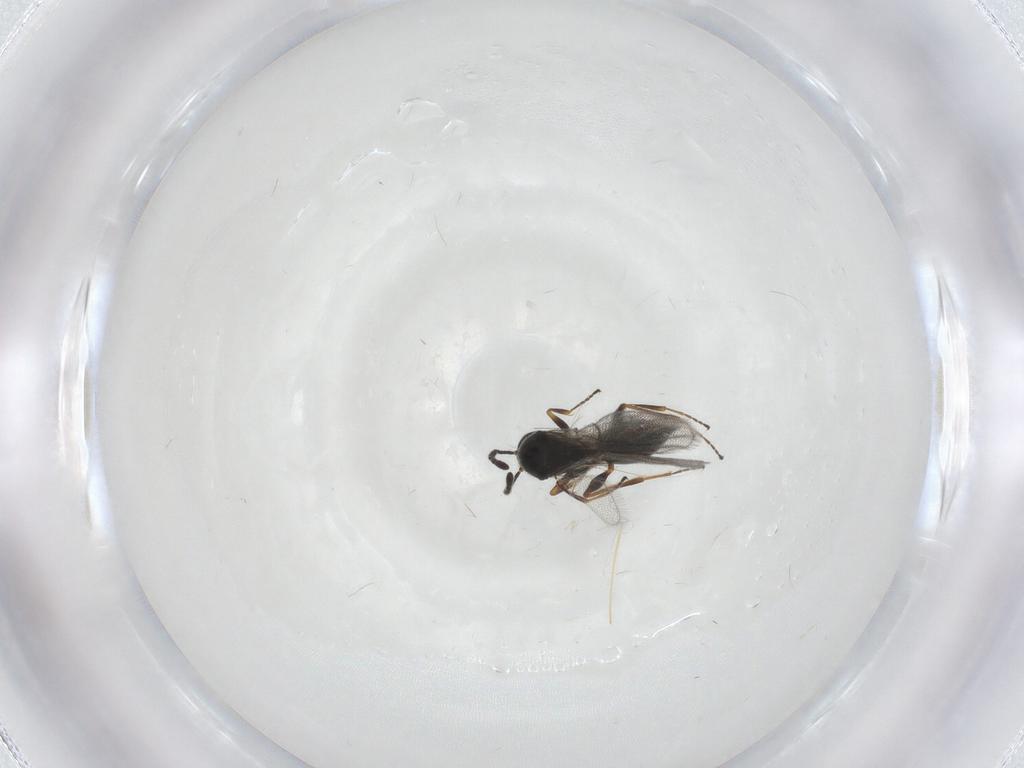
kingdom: Animalia
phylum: Arthropoda
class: Insecta
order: Hymenoptera
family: Figitidae
